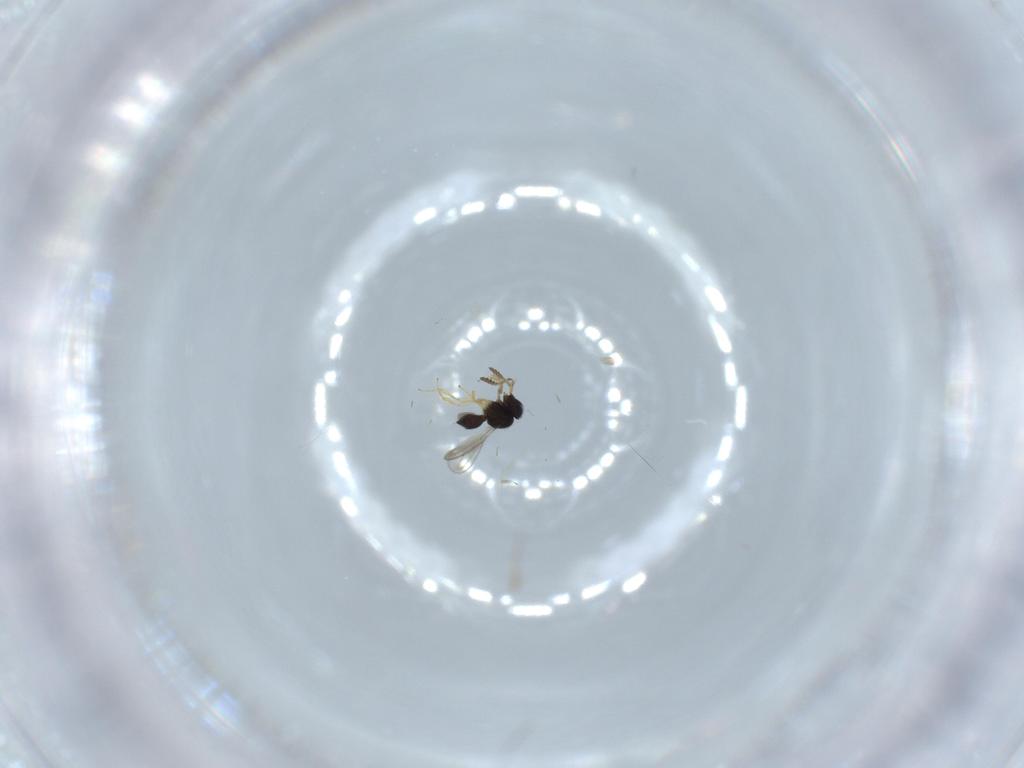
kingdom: Animalia
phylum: Arthropoda
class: Insecta
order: Hymenoptera
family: Scelionidae
